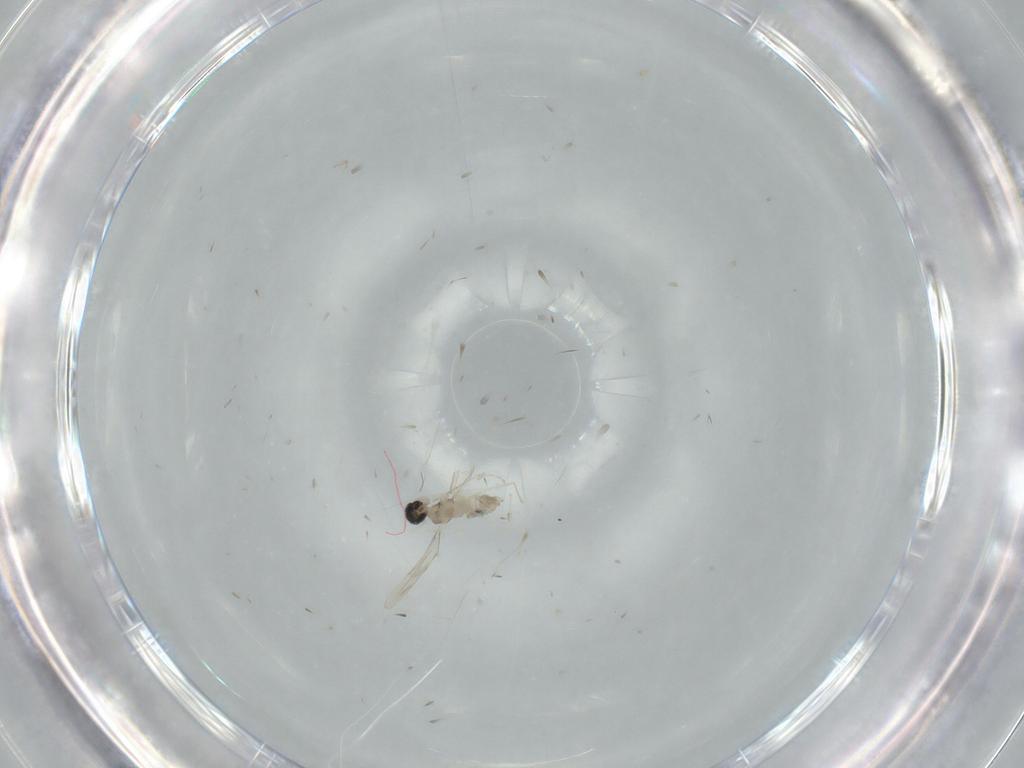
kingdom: Animalia
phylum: Arthropoda
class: Insecta
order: Diptera
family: Cecidomyiidae
